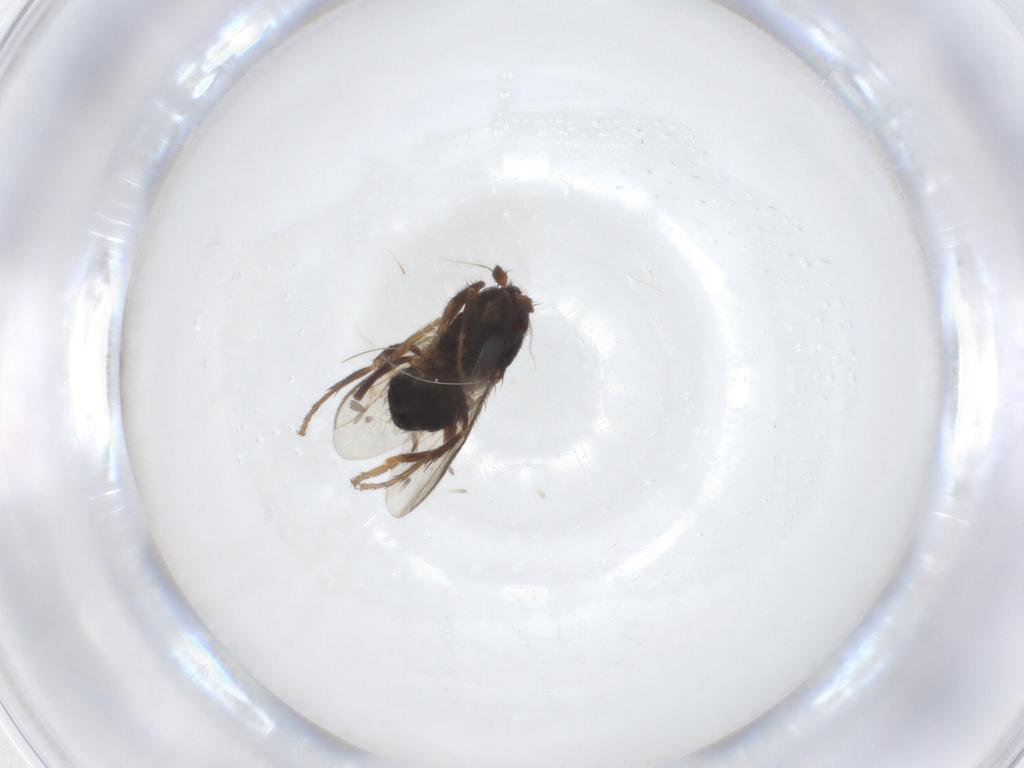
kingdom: Animalia
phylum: Arthropoda
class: Insecta
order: Diptera
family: Sphaeroceridae
